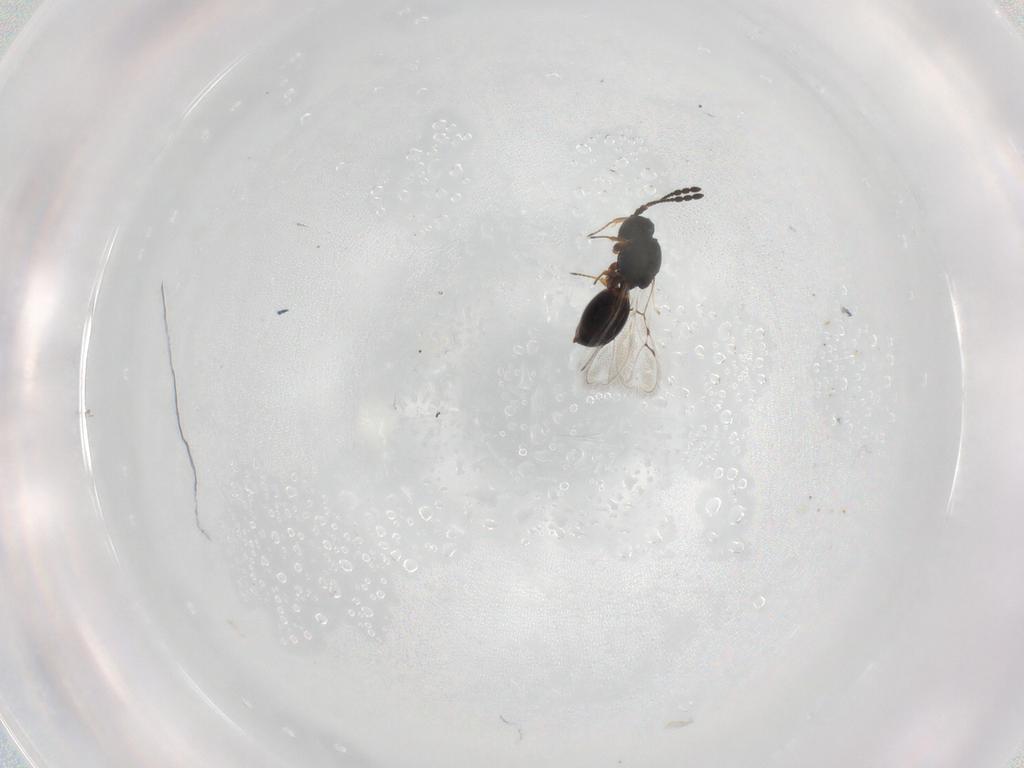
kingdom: Animalia
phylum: Arthropoda
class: Insecta
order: Hymenoptera
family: Figitidae
